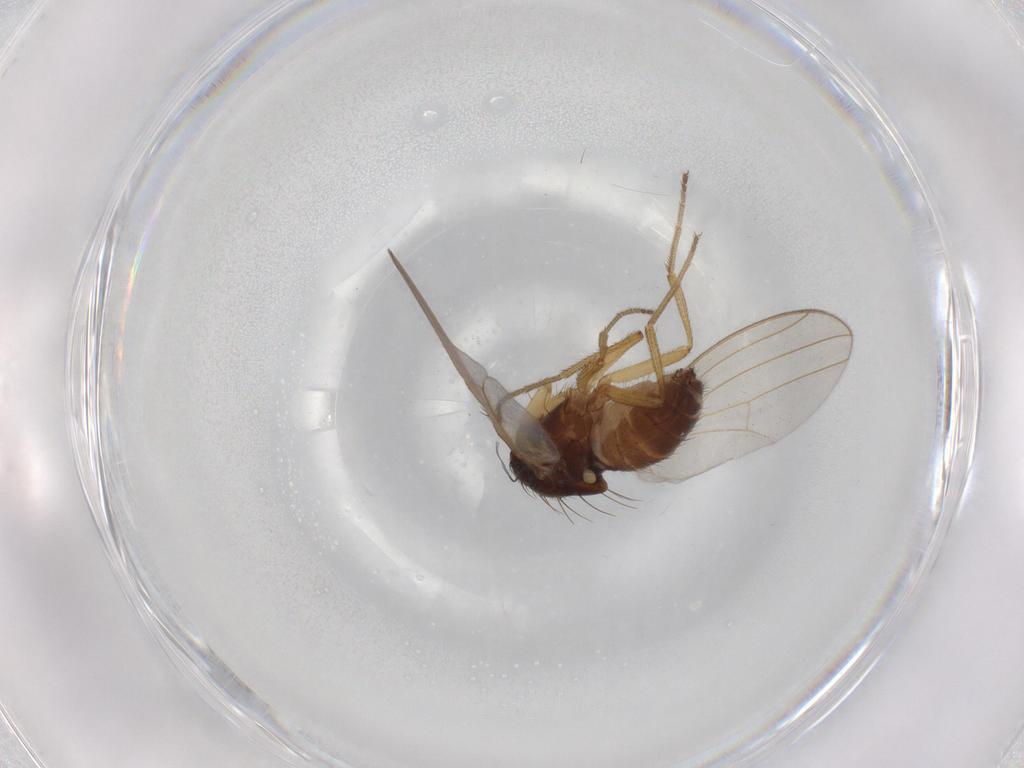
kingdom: Animalia
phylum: Arthropoda
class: Insecta
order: Diptera
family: Drosophilidae
